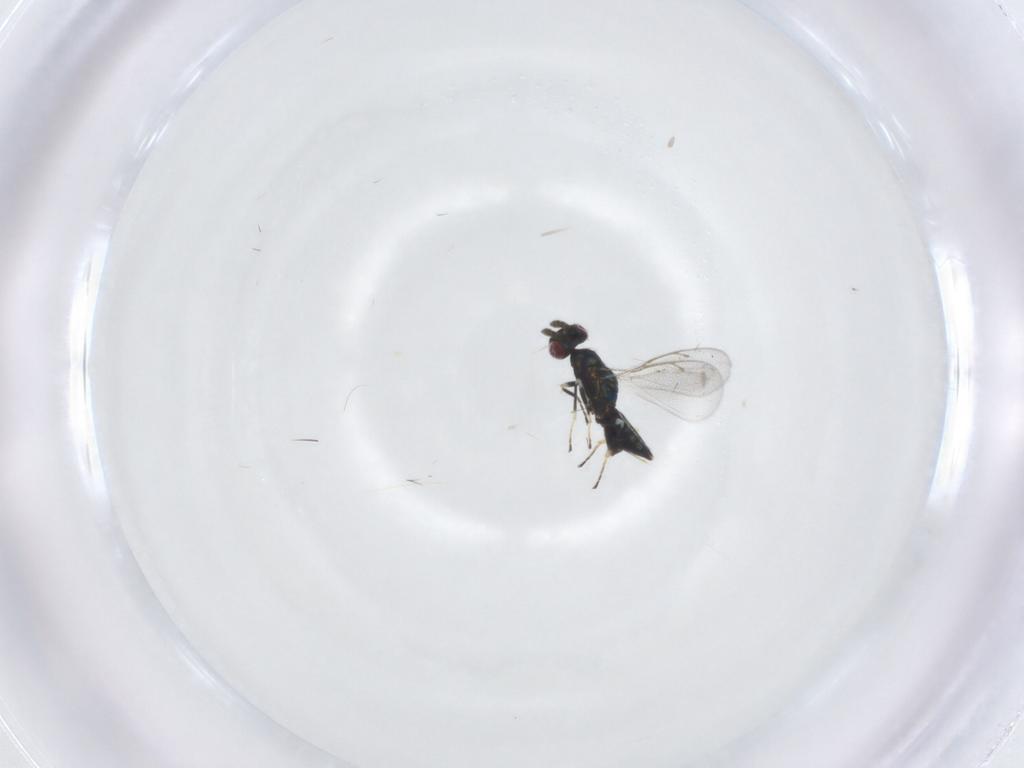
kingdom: Animalia
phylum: Arthropoda
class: Insecta
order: Hymenoptera
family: Eulophidae
